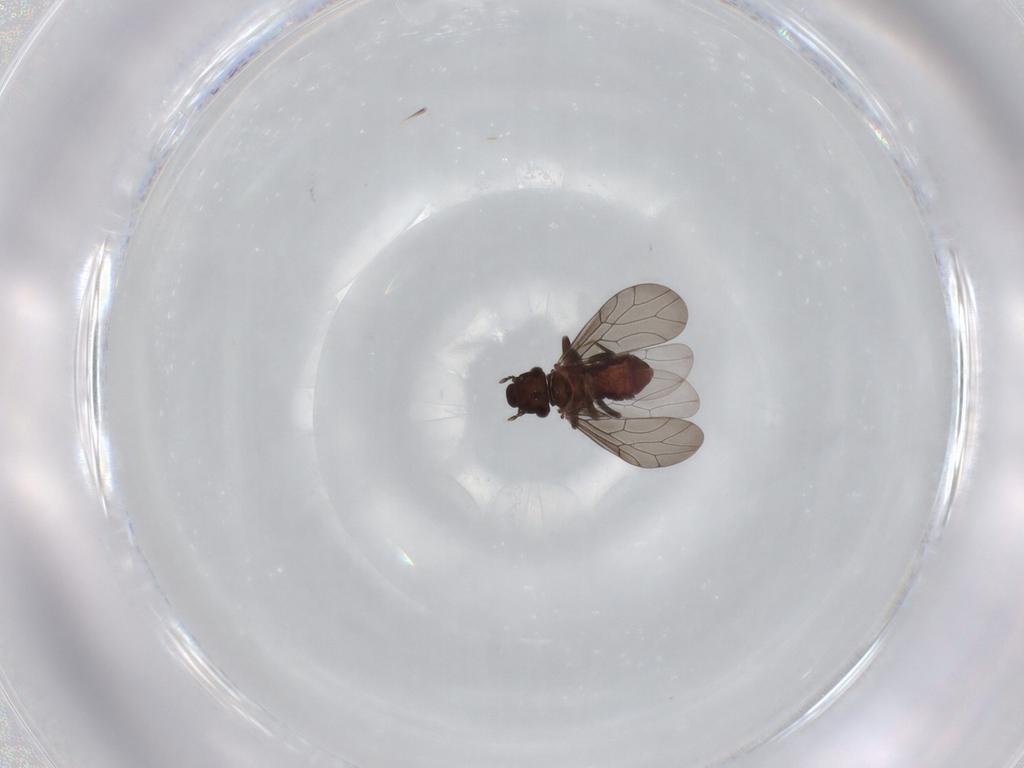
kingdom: Animalia
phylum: Arthropoda
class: Insecta
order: Psocodea
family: Lepidopsocidae
